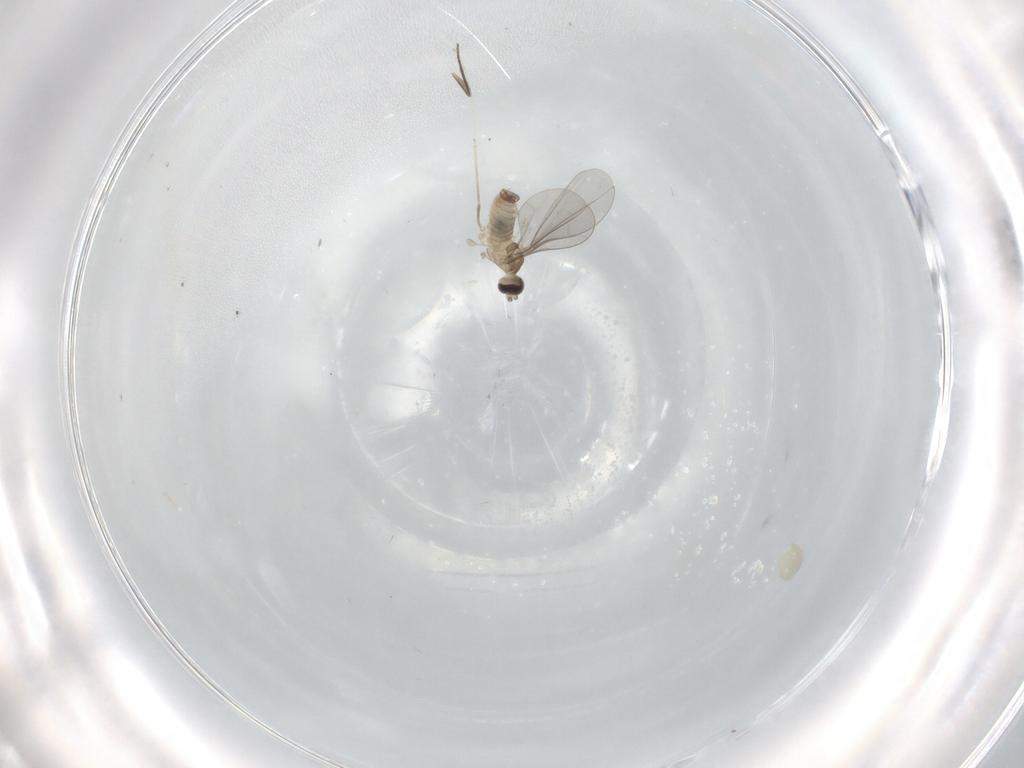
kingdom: Animalia
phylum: Arthropoda
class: Insecta
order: Diptera
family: Cecidomyiidae
